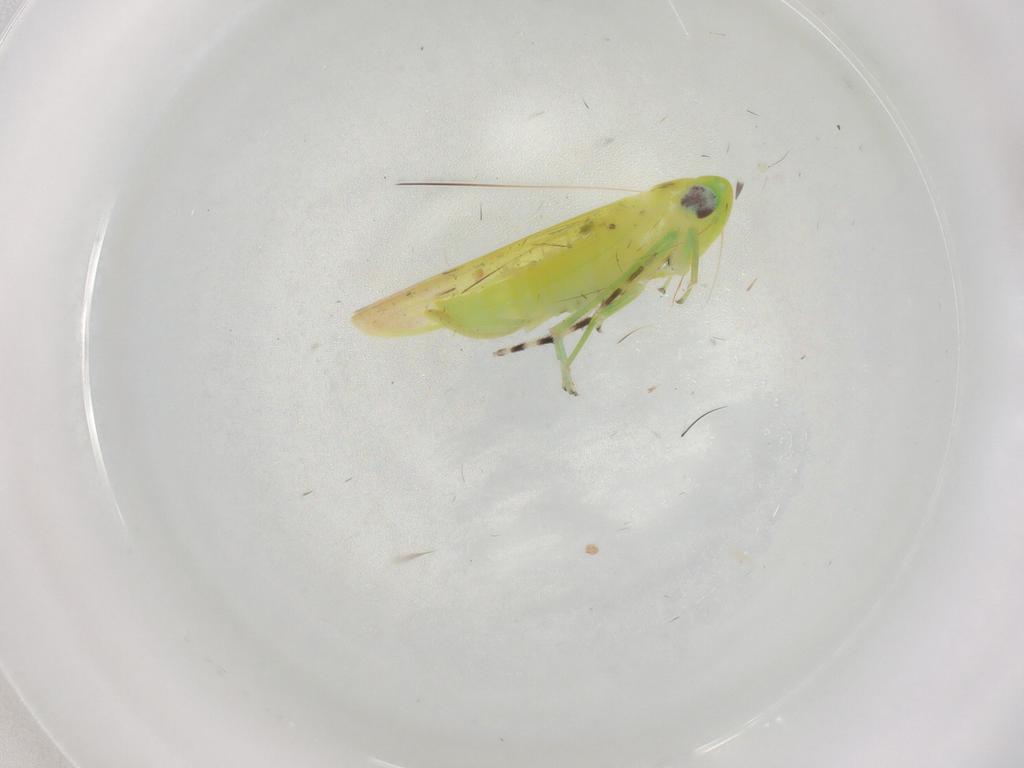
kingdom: Animalia
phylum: Arthropoda
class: Insecta
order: Hemiptera
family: Cicadellidae
